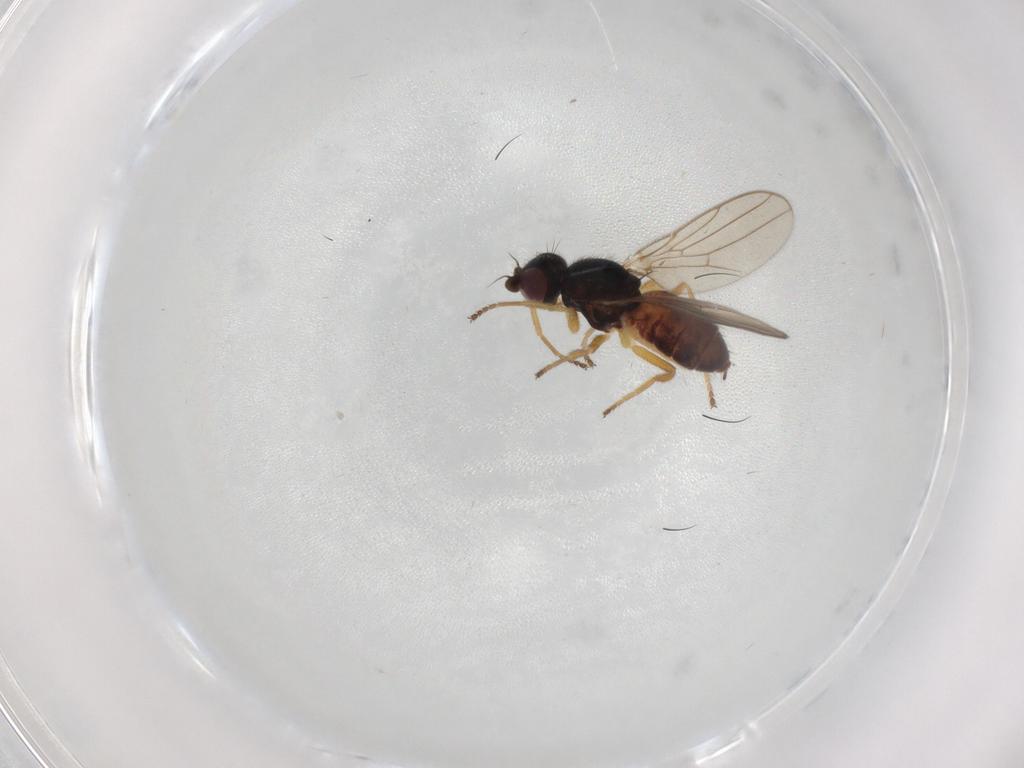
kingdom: Animalia
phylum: Arthropoda
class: Insecta
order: Diptera
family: Chloropidae
